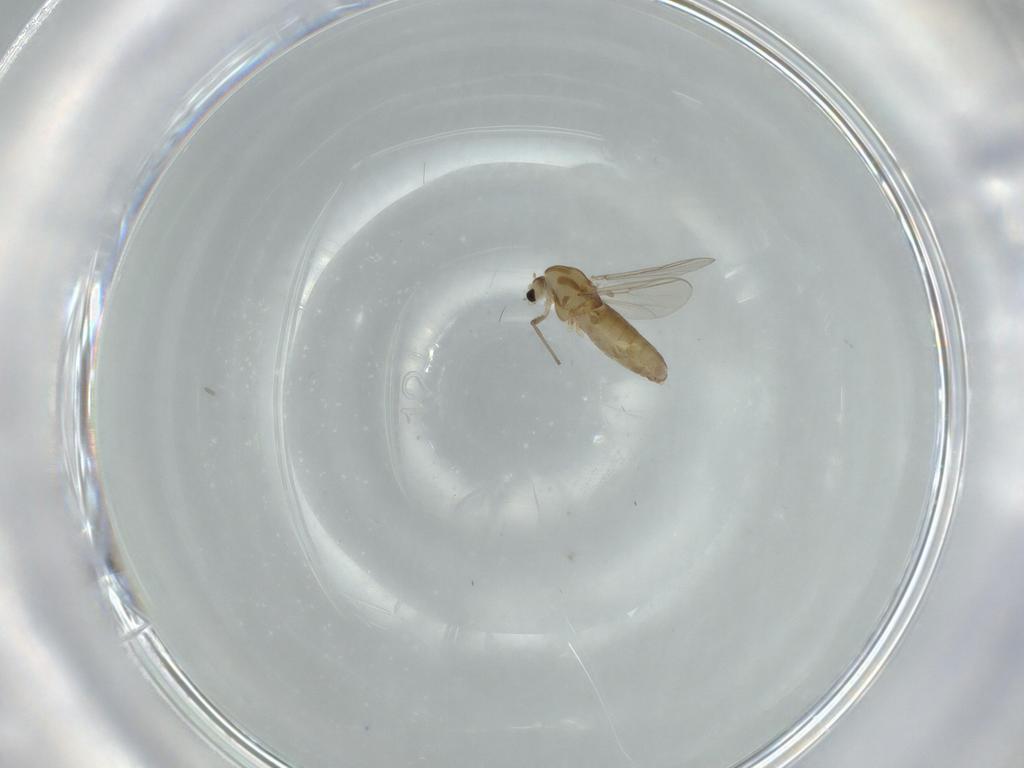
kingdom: Animalia
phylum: Arthropoda
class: Insecta
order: Diptera
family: Chironomidae
